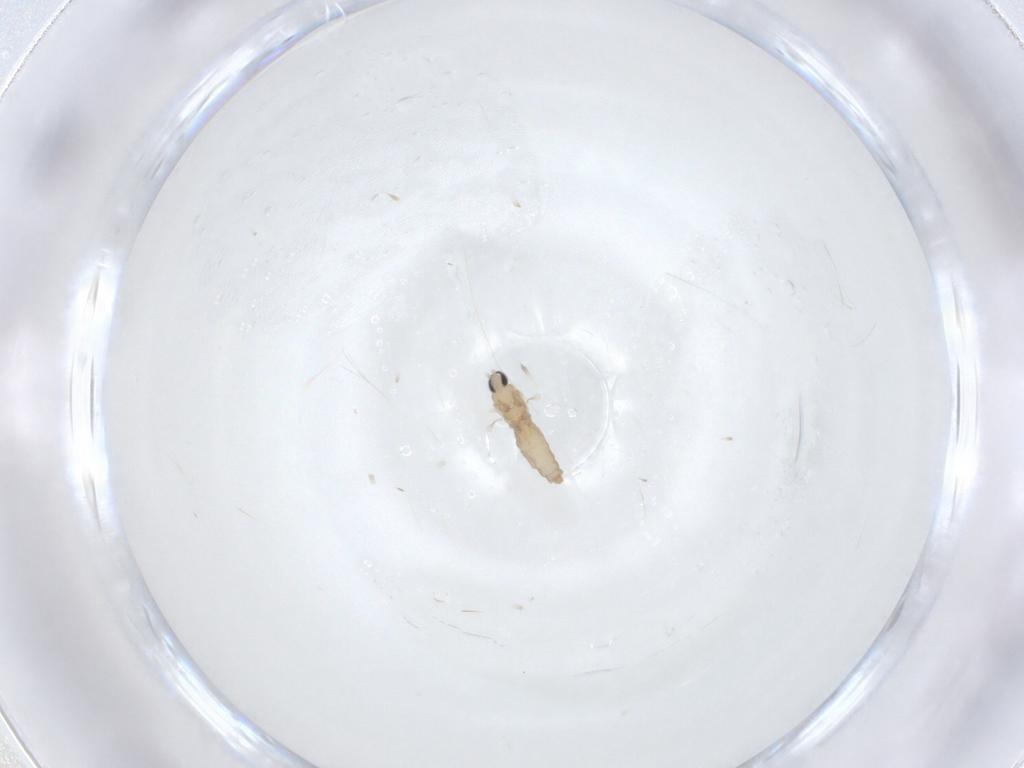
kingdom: Animalia
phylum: Arthropoda
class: Insecta
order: Diptera
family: Cecidomyiidae
